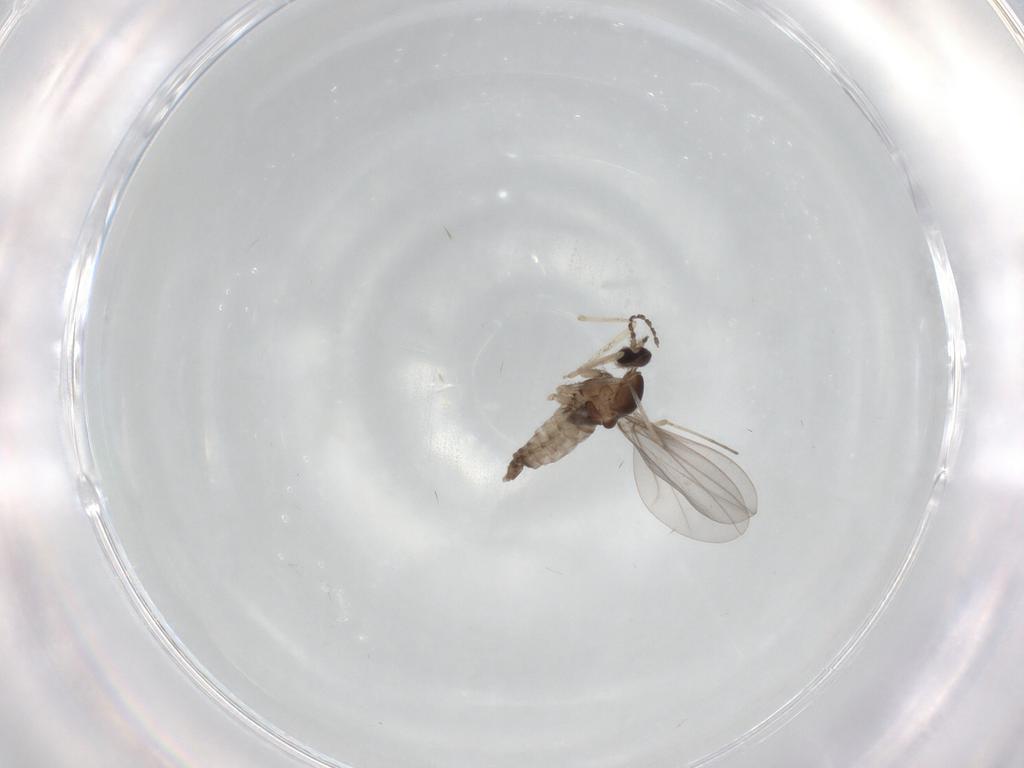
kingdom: Animalia
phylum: Arthropoda
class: Insecta
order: Diptera
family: Cecidomyiidae
